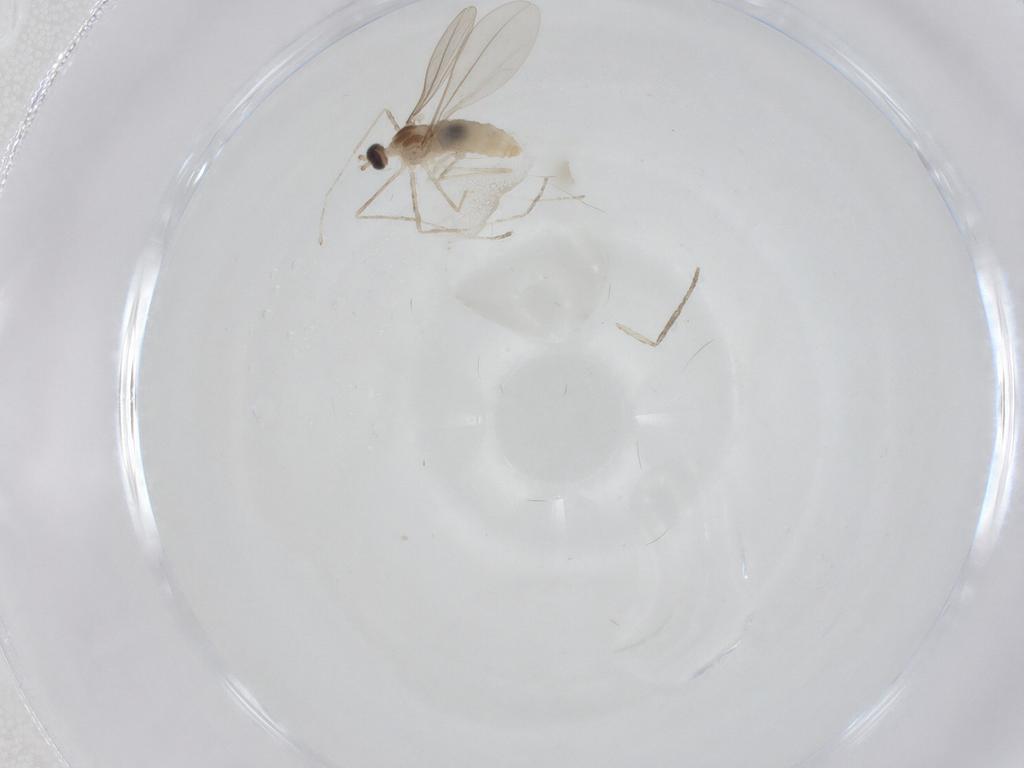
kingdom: Animalia
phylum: Arthropoda
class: Insecta
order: Diptera
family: Cecidomyiidae
